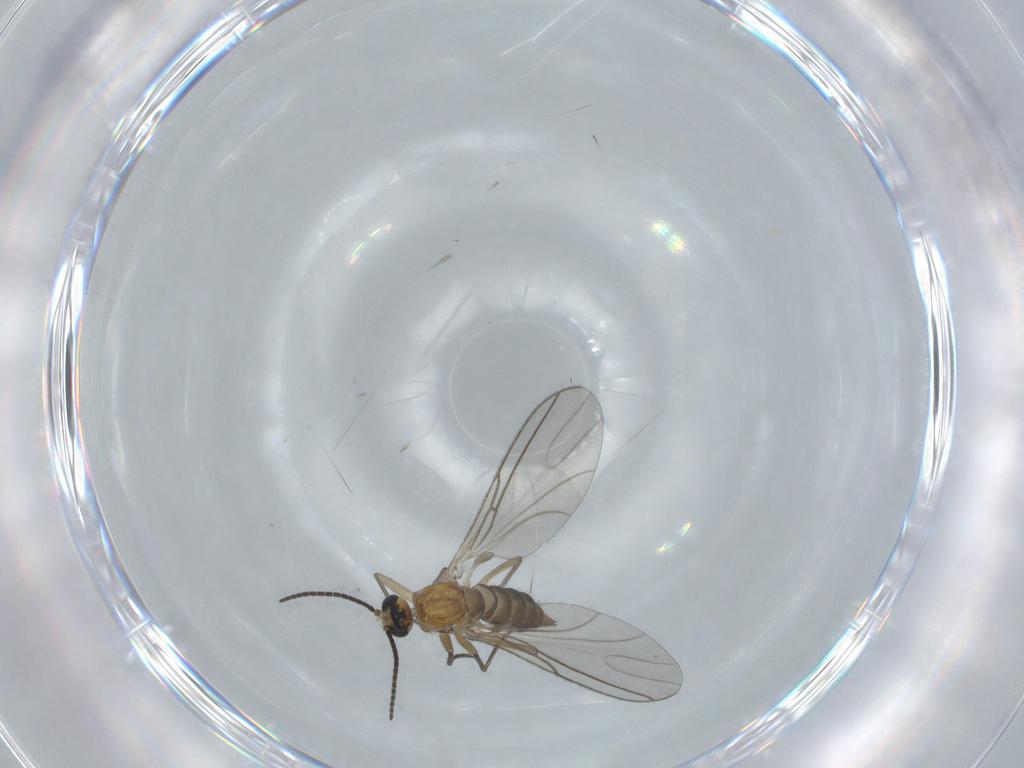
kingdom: Animalia
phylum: Arthropoda
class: Insecta
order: Diptera
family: Sciaridae
